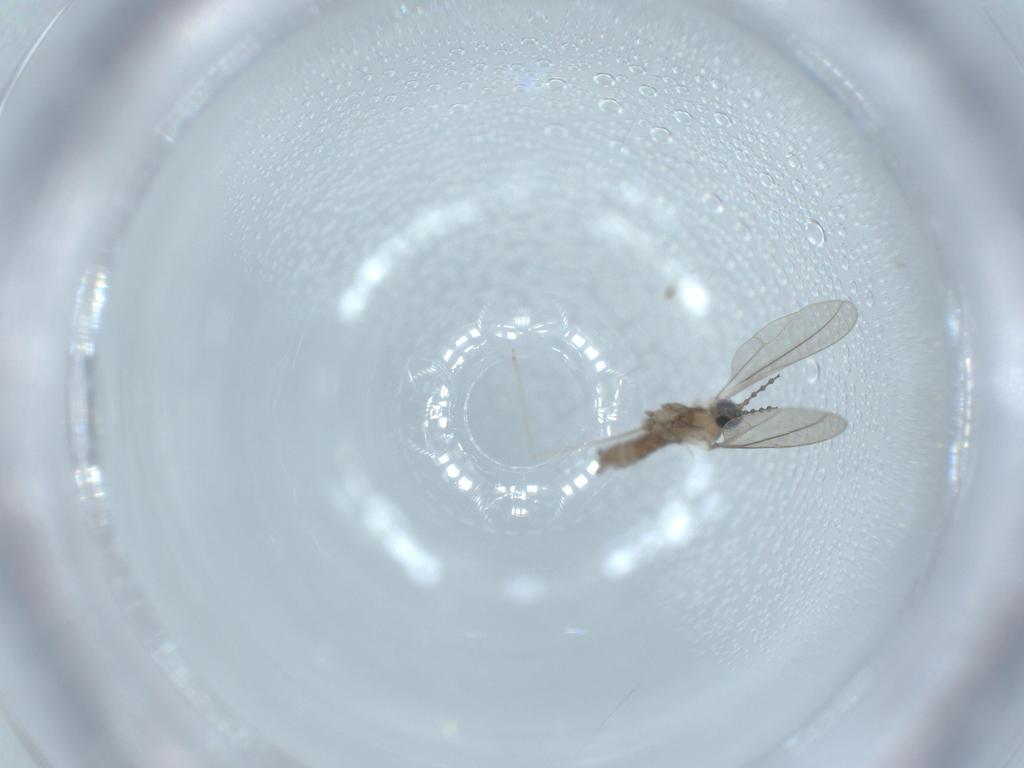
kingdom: Animalia
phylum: Arthropoda
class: Insecta
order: Diptera
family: Cecidomyiidae
